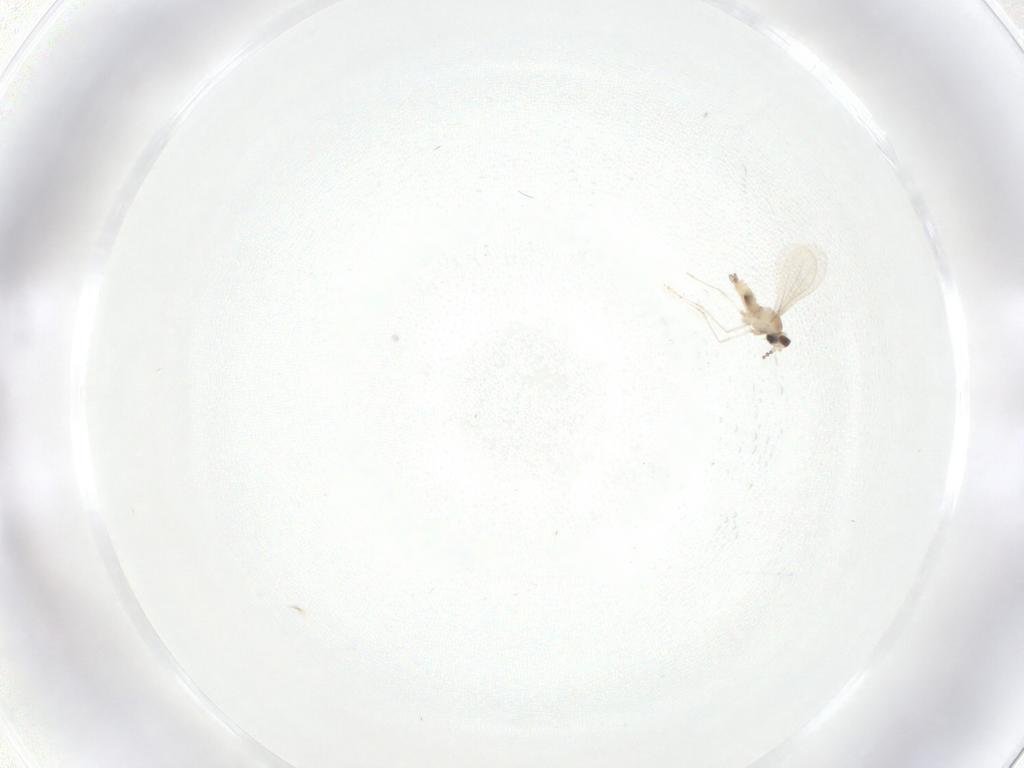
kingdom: Animalia
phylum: Arthropoda
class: Insecta
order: Diptera
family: Cecidomyiidae
